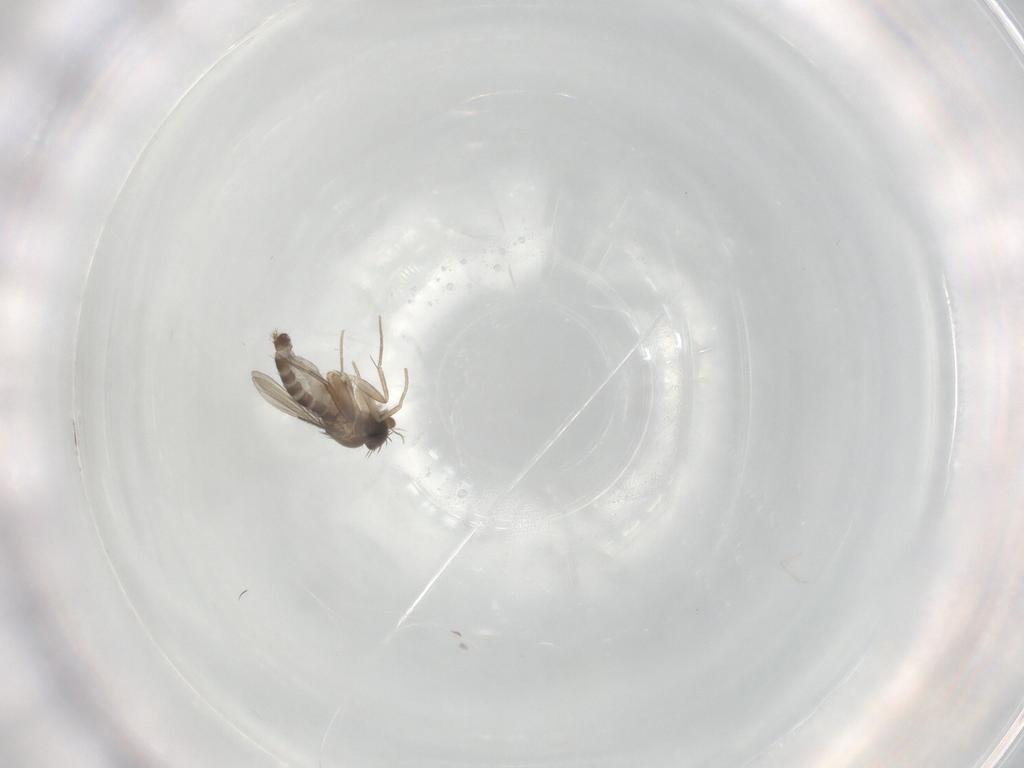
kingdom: Animalia
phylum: Arthropoda
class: Insecta
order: Diptera
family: Phoridae
